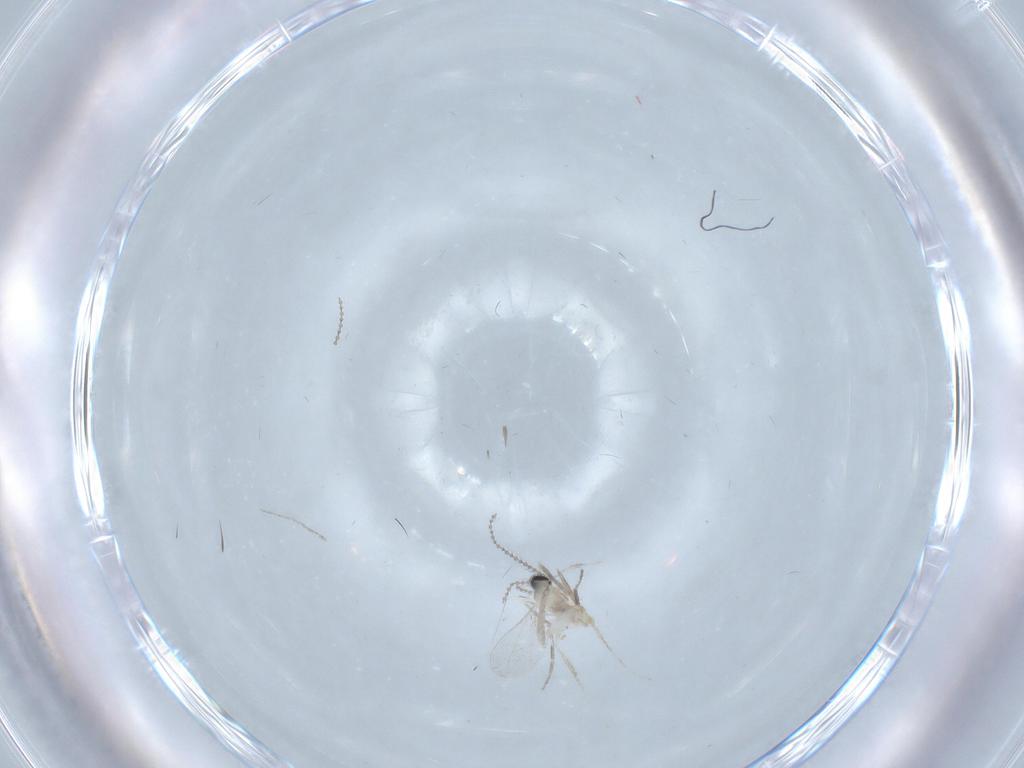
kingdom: Animalia
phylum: Arthropoda
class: Insecta
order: Diptera
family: Cecidomyiidae
